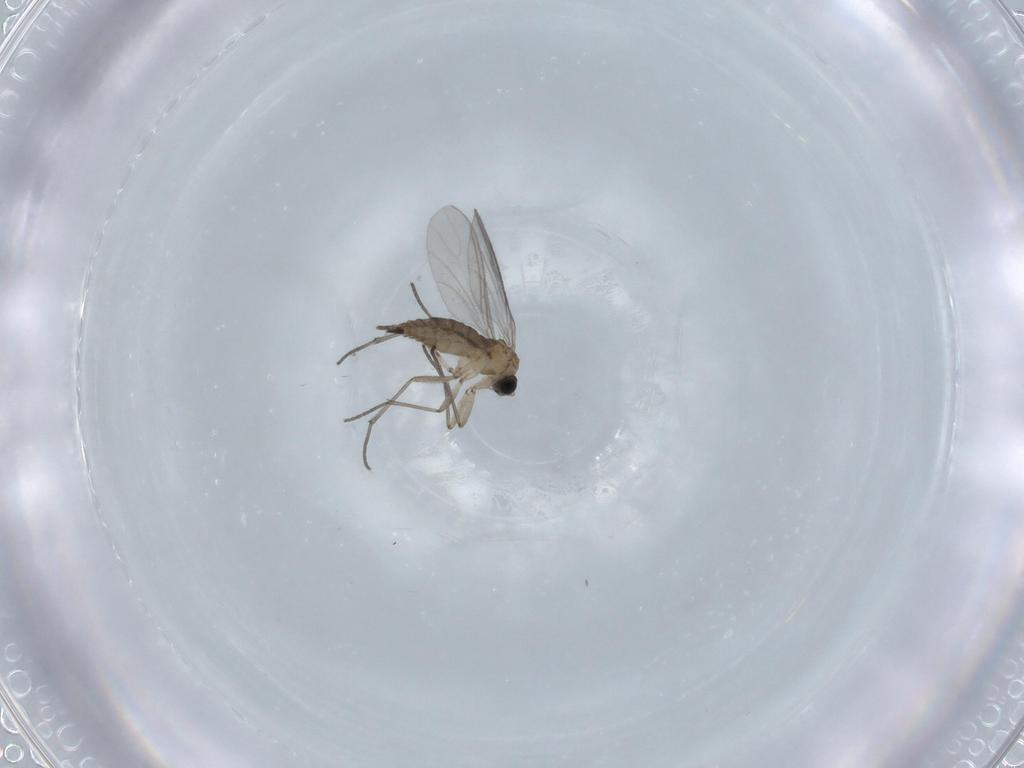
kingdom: Animalia
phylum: Arthropoda
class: Insecta
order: Diptera
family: Sciaridae
